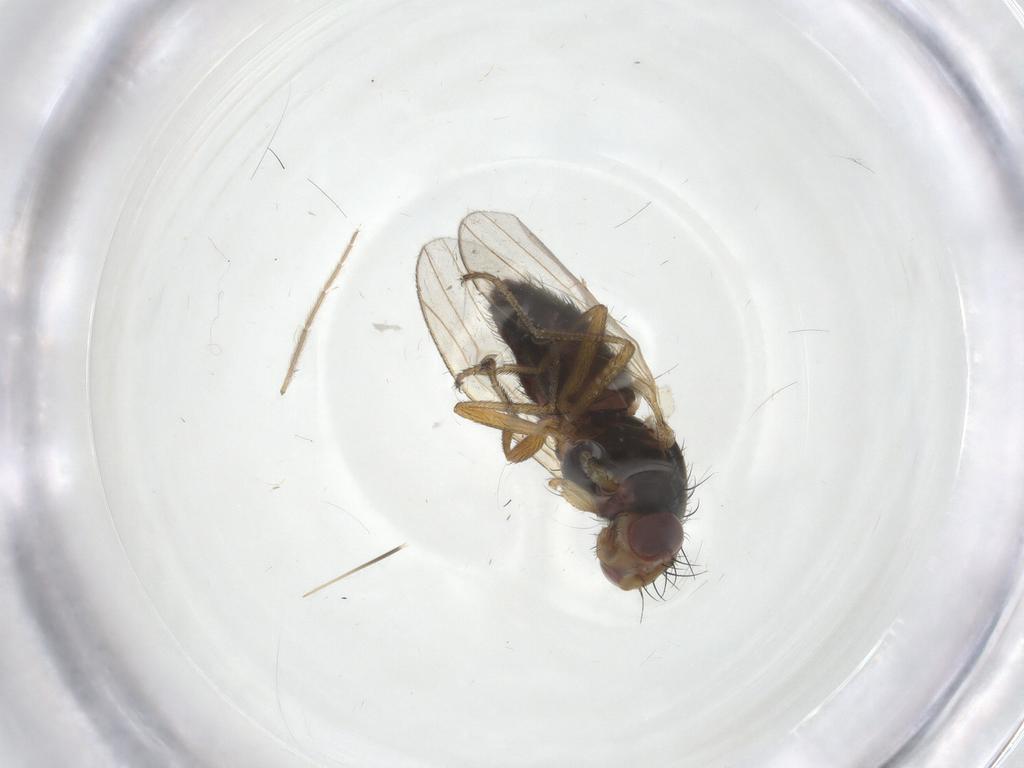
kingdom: Animalia
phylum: Arthropoda
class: Insecta
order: Diptera
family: Heleomyzidae
